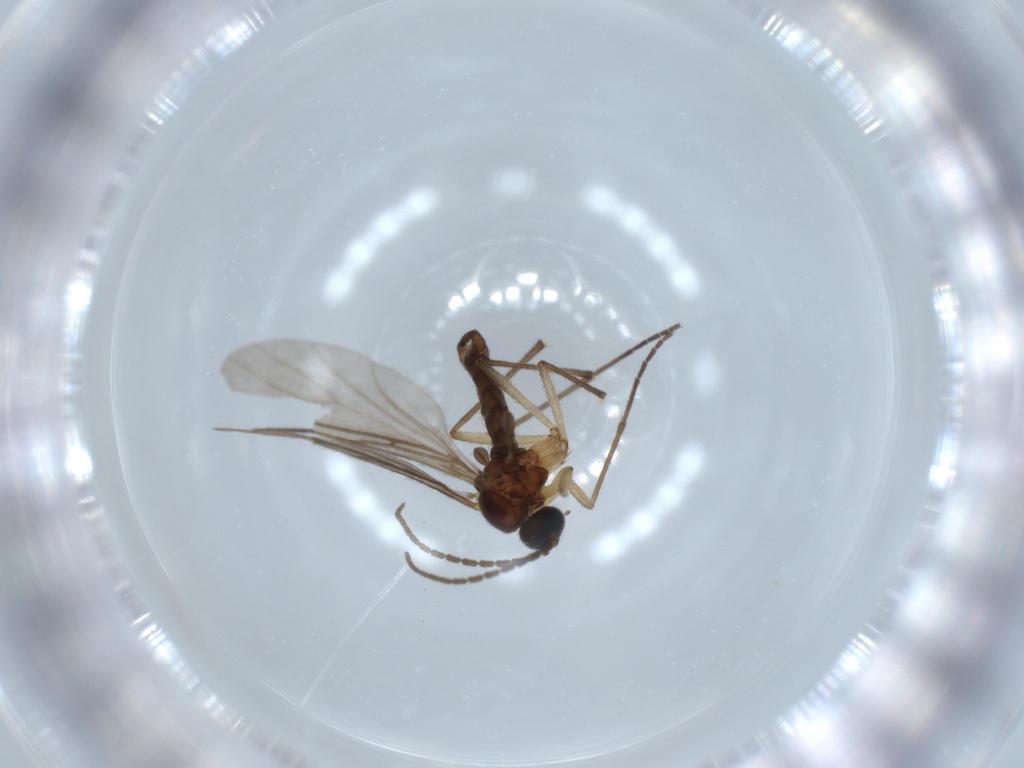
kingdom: Animalia
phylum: Arthropoda
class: Insecta
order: Diptera
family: Sciaridae
